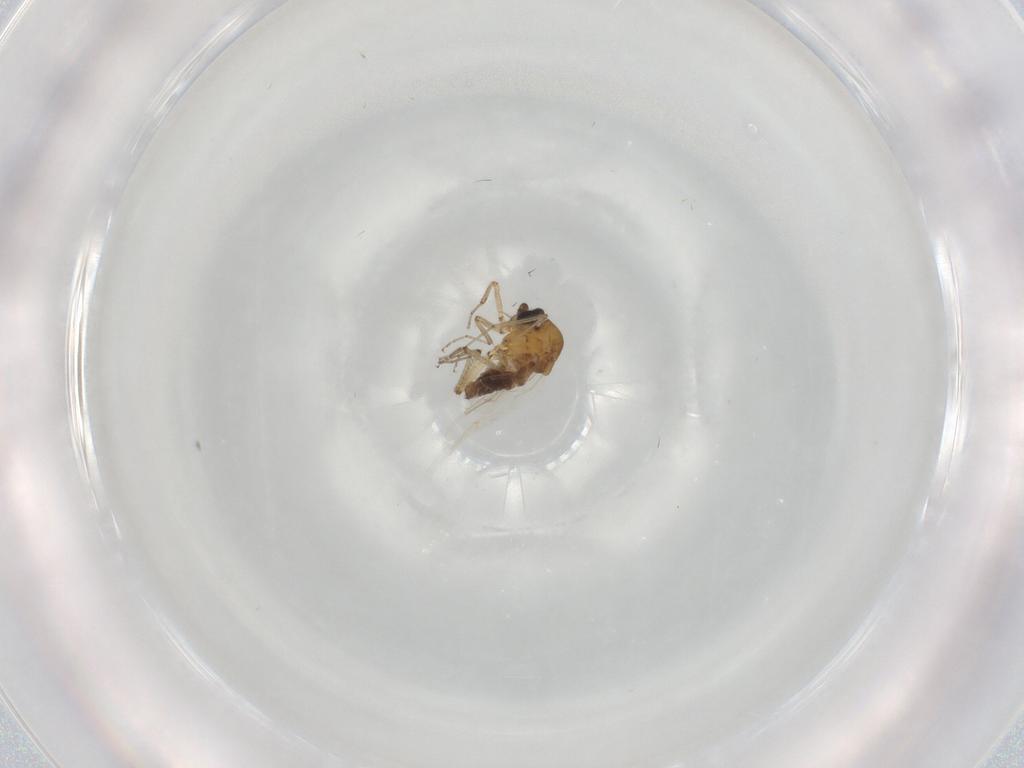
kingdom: Animalia
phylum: Arthropoda
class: Insecta
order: Diptera
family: Ceratopogonidae
